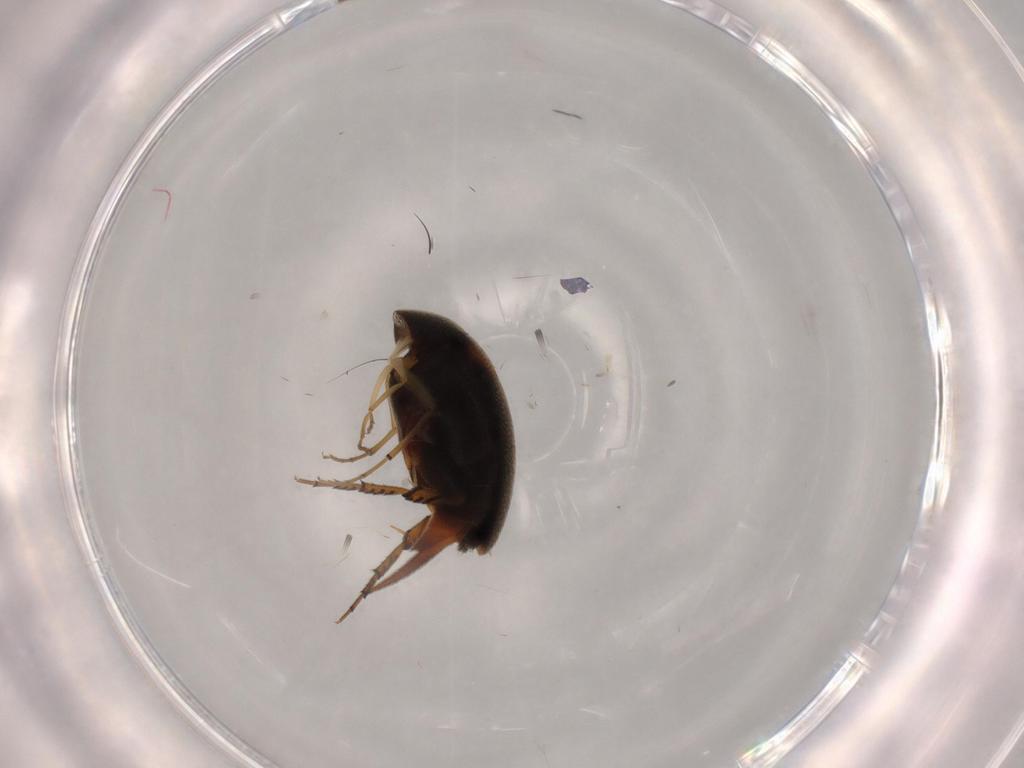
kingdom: Animalia
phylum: Arthropoda
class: Insecta
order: Coleoptera
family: Mordellidae
